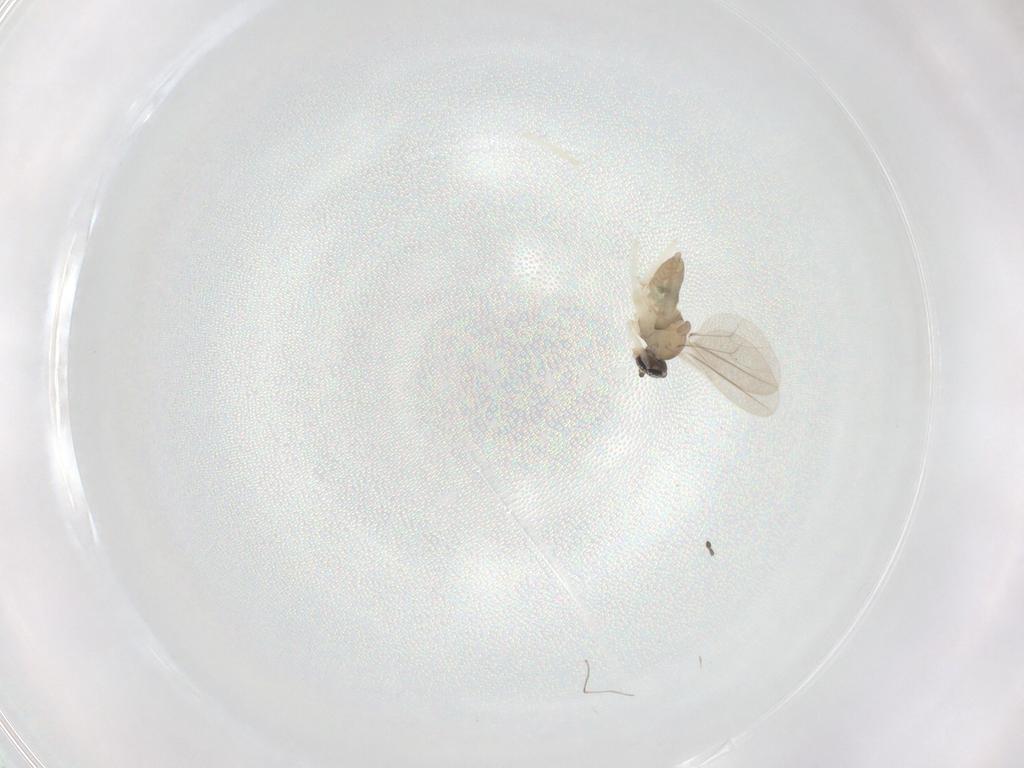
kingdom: Animalia
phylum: Arthropoda
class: Insecta
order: Diptera
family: Cecidomyiidae
